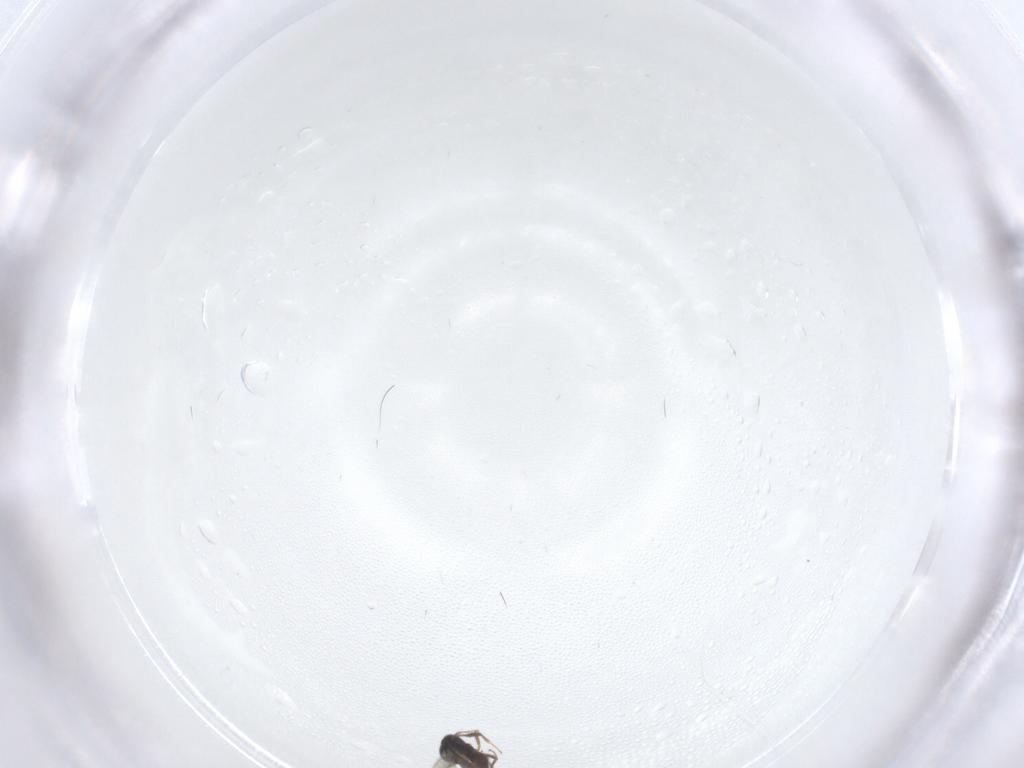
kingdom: Animalia
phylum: Arthropoda
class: Insecta
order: Hymenoptera
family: Scelionidae
